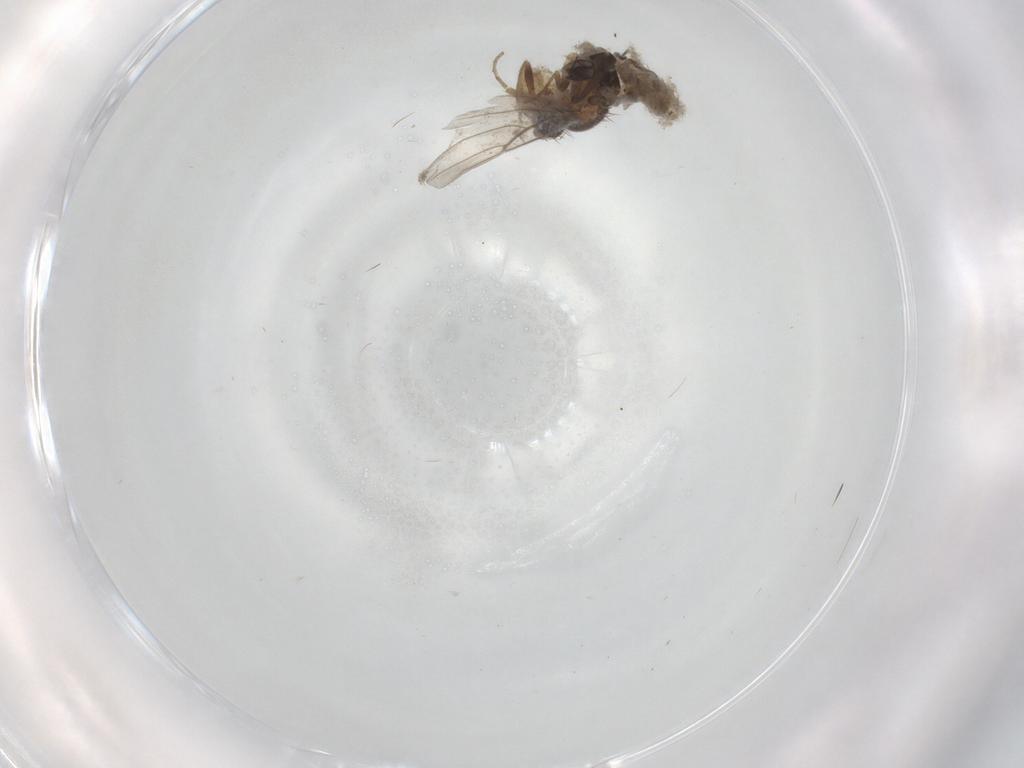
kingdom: Animalia
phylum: Arthropoda
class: Insecta
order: Diptera
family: Phoridae
